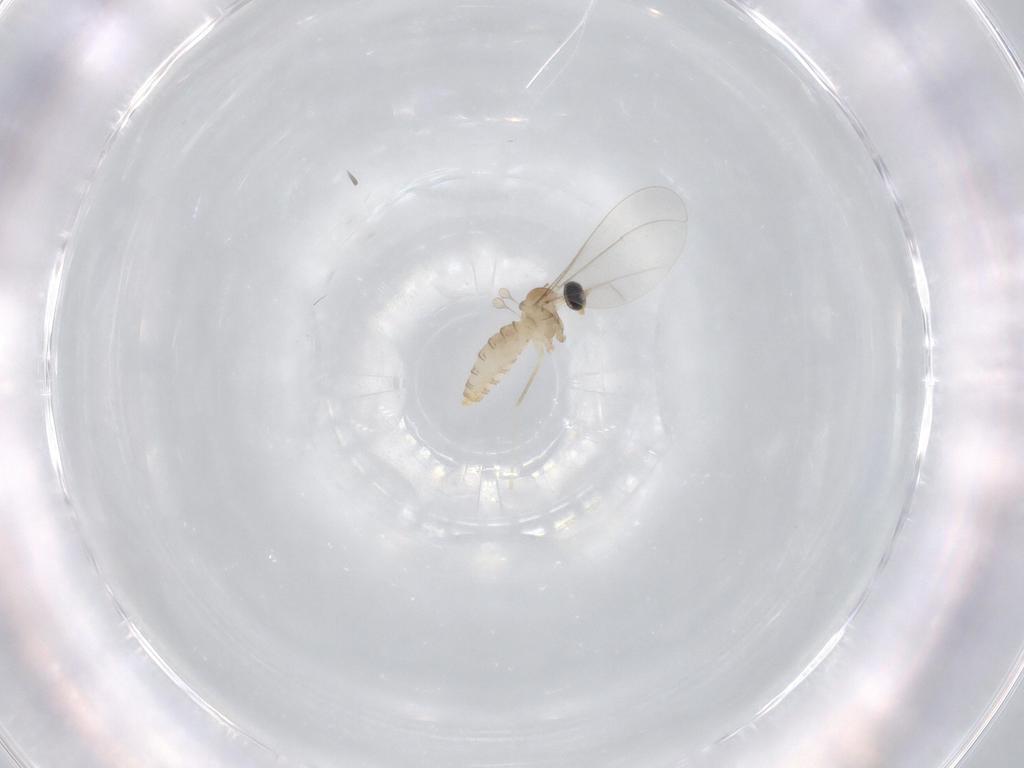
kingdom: Animalia
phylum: Arthropoda
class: Insecta
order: Diptera
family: Cecidomyiidae
